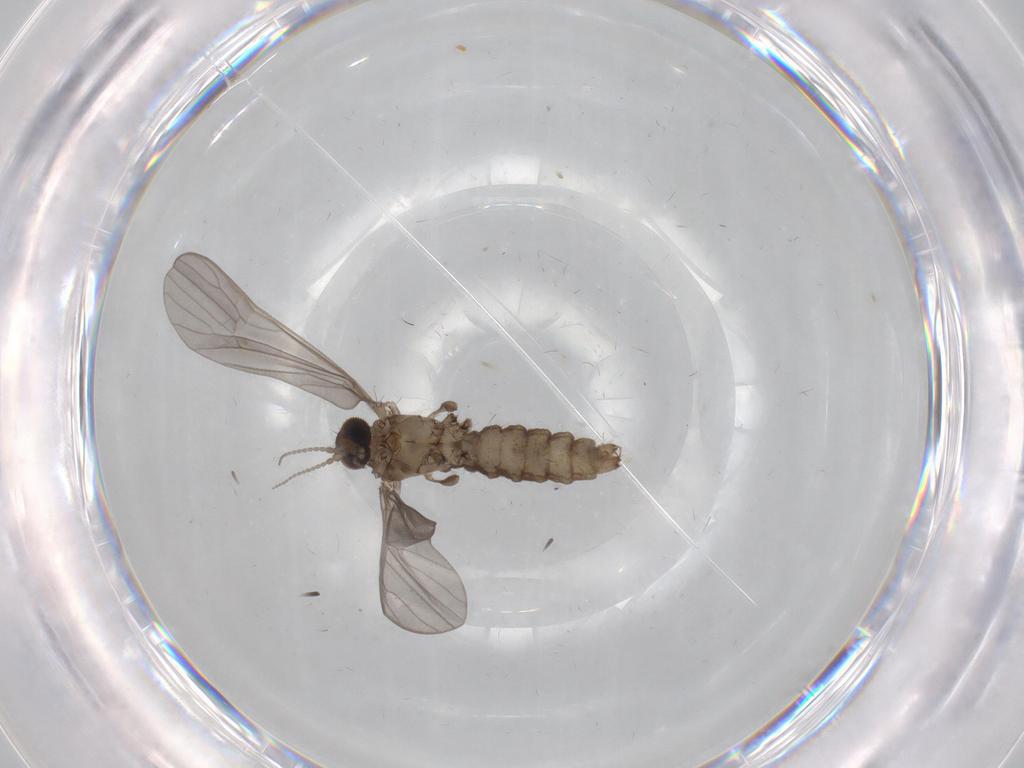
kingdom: Animalia
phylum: Arthropoda
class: Insecta
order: Diptera
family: Limoniidae
